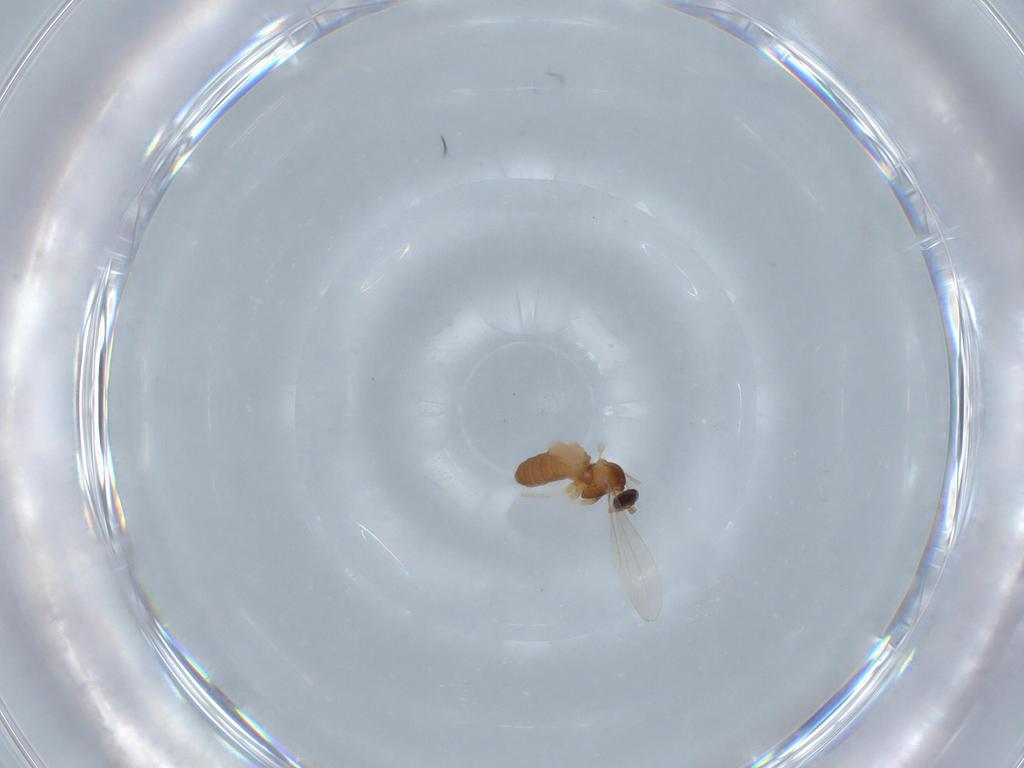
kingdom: Animalia
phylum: Arthropoda
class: Insecta
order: Diptera
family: Cecidomyiidae
